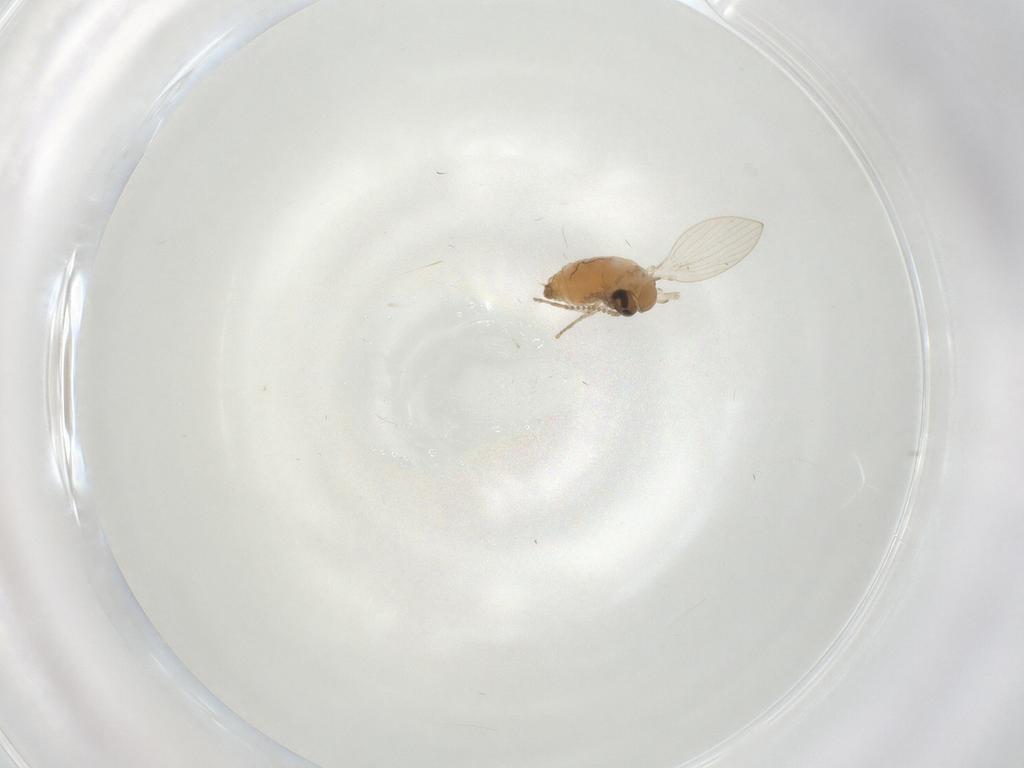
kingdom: Animalia
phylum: Arthropoda
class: Insecta
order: Diptera
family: Psychodidae
